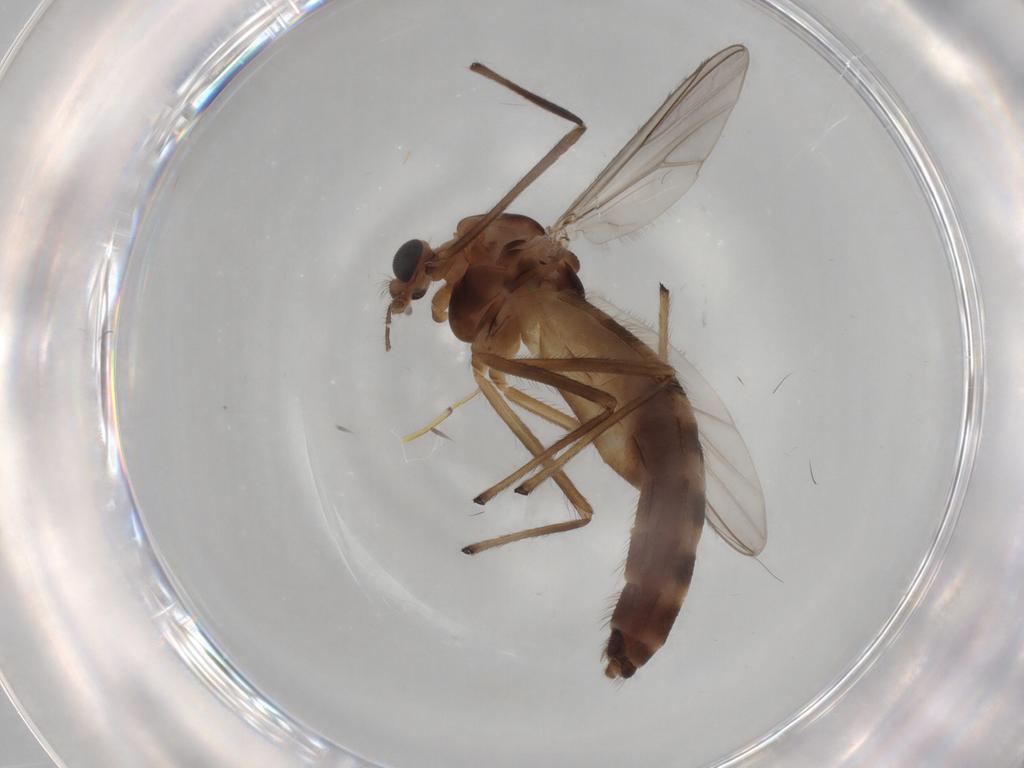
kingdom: Animalia
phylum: Arthropoda
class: Insecta
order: Diptera
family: Chironomidae
